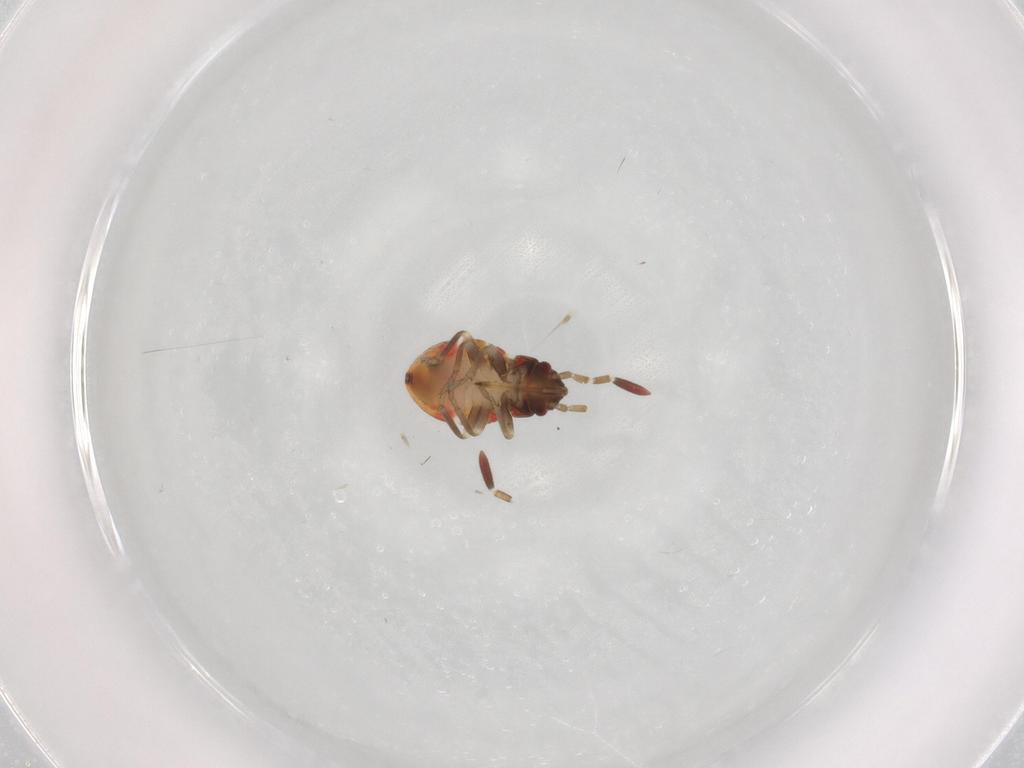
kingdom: Animalia
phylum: Arthropoda
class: Insecta
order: Hemiptera
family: Rhyparochromidae
